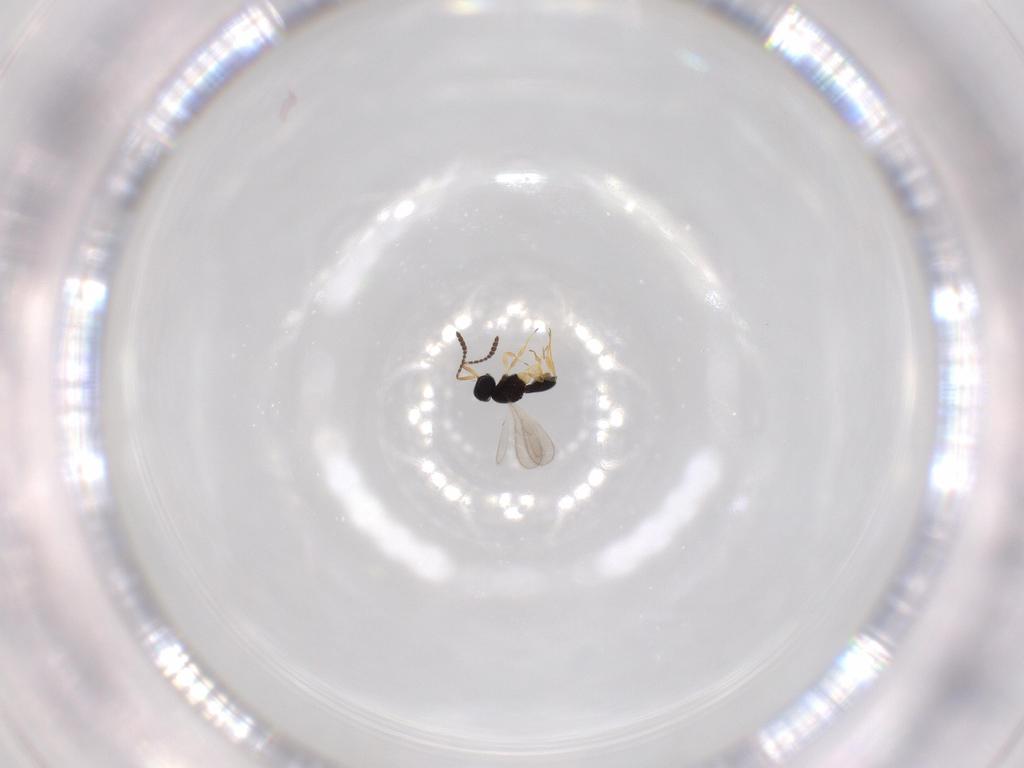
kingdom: Animalia
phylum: Arthropoda
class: Insecta
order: Hymenoptera
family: Scelionidae
